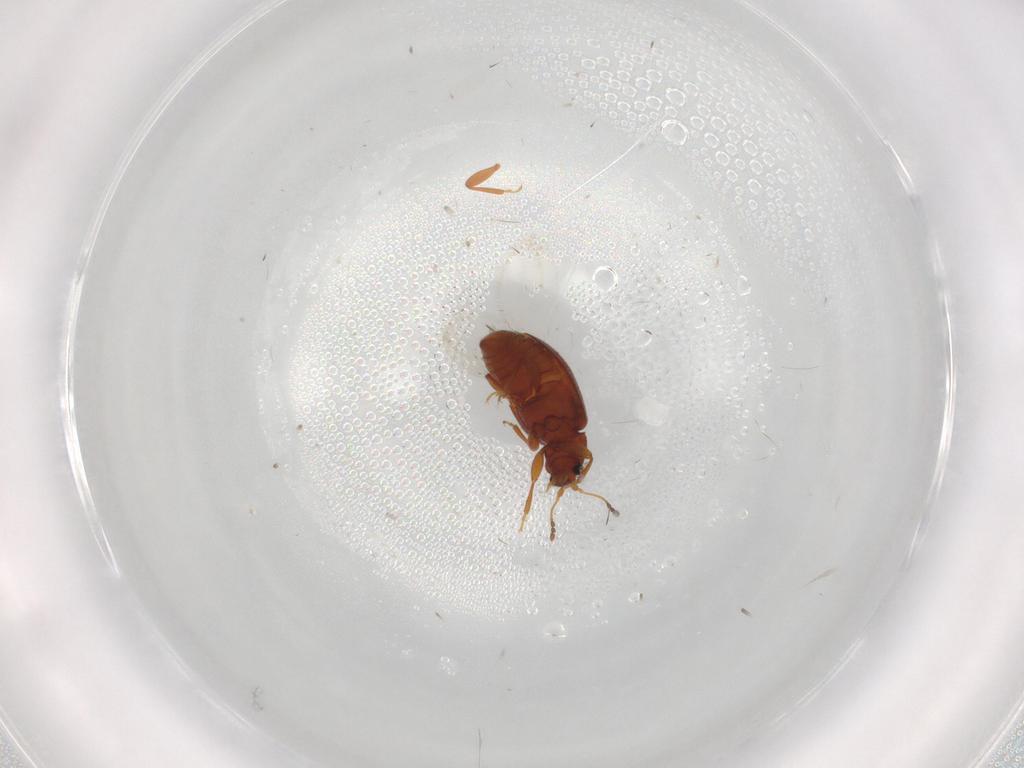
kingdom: Animalia
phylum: Arthropoda
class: Insecta
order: Coleoptera
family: Latridiidae
